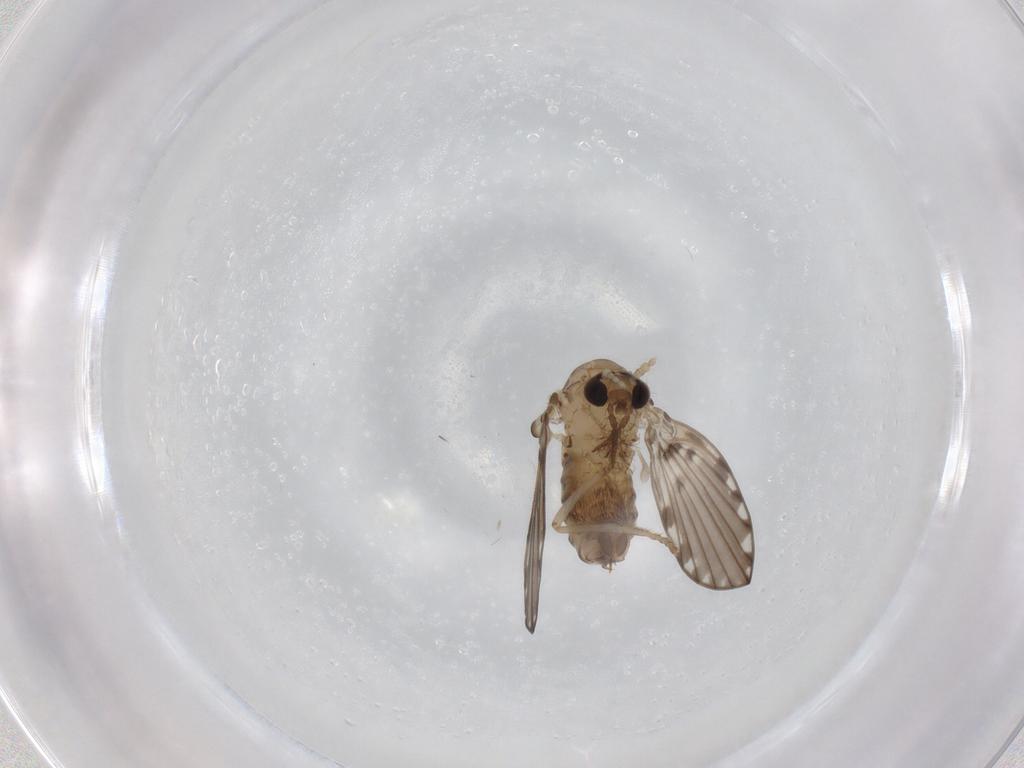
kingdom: Animalia
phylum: Arthropoda
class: Insecta
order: Diptera
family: Psychodidae
